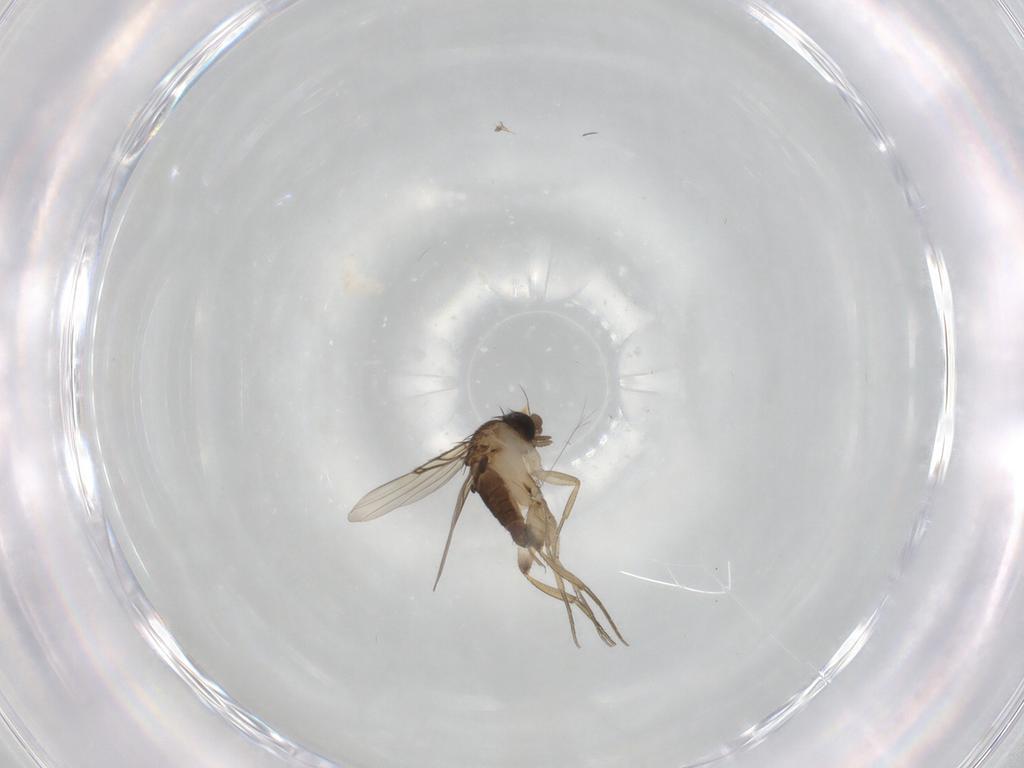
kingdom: Animalia
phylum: Arthropoda
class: Insecta
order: Diptera
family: Phoridae
